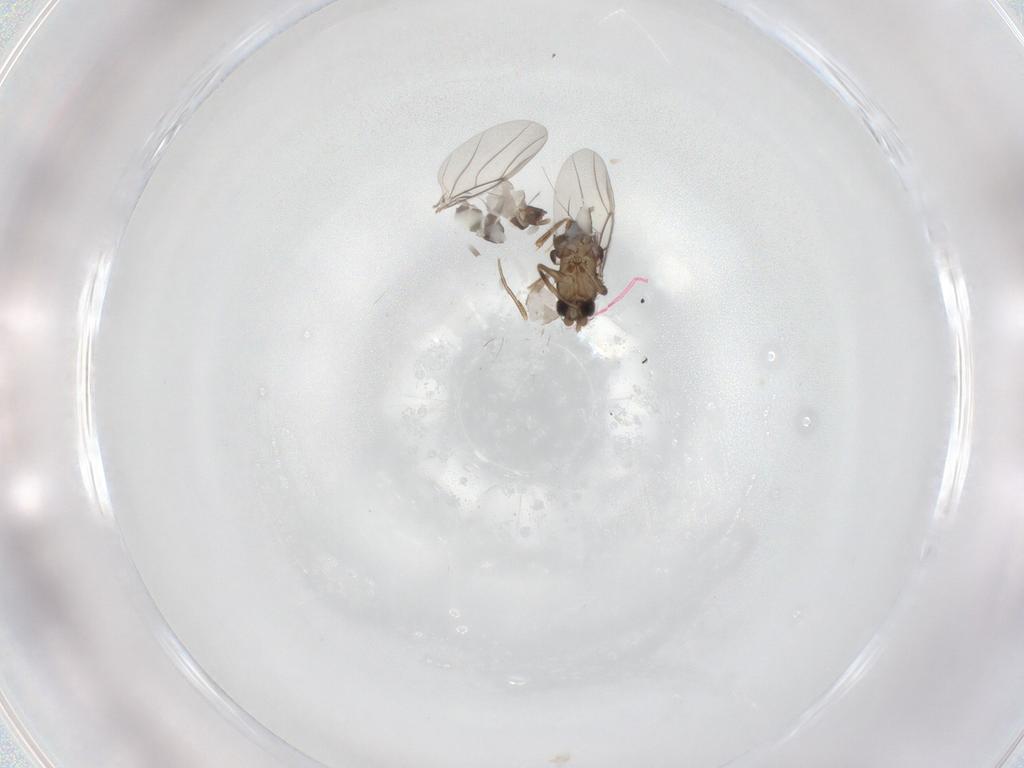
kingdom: Animalia
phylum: Arthropoda
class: Insecta
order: Diptera
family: Phoridae
